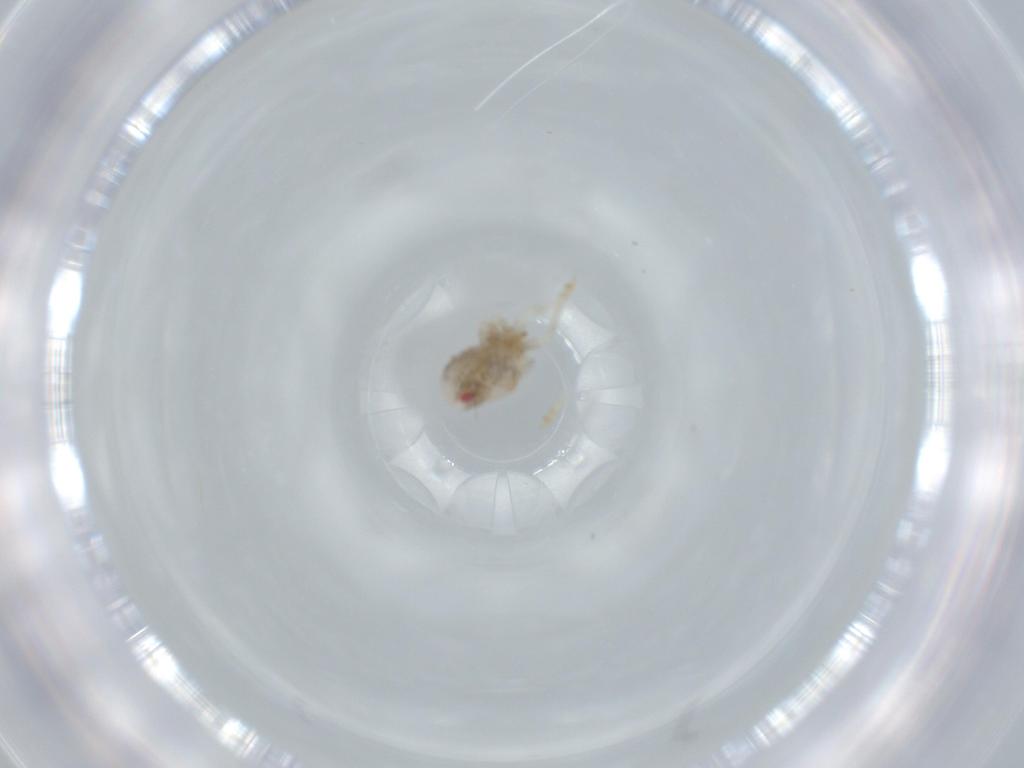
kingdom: Animalia
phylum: Arthropoda
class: Insecta
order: Hemiptera
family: Acanaloniidae
